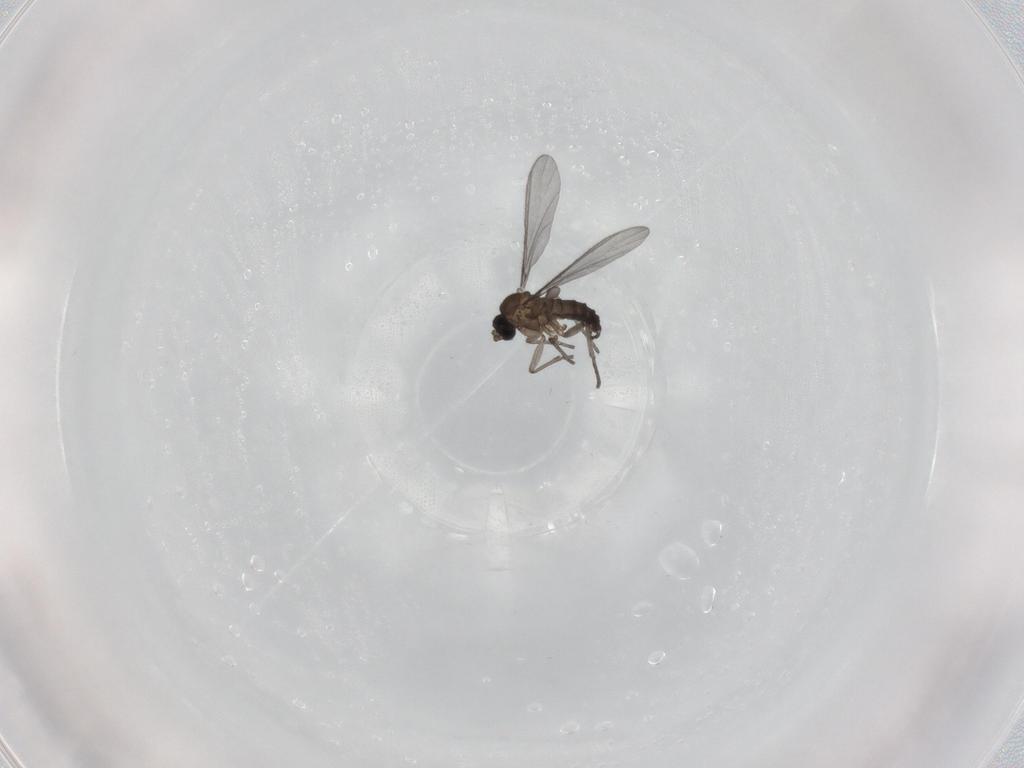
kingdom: Animalia
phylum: Arthropoda
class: Insecta
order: Diptera
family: Sciaridae
